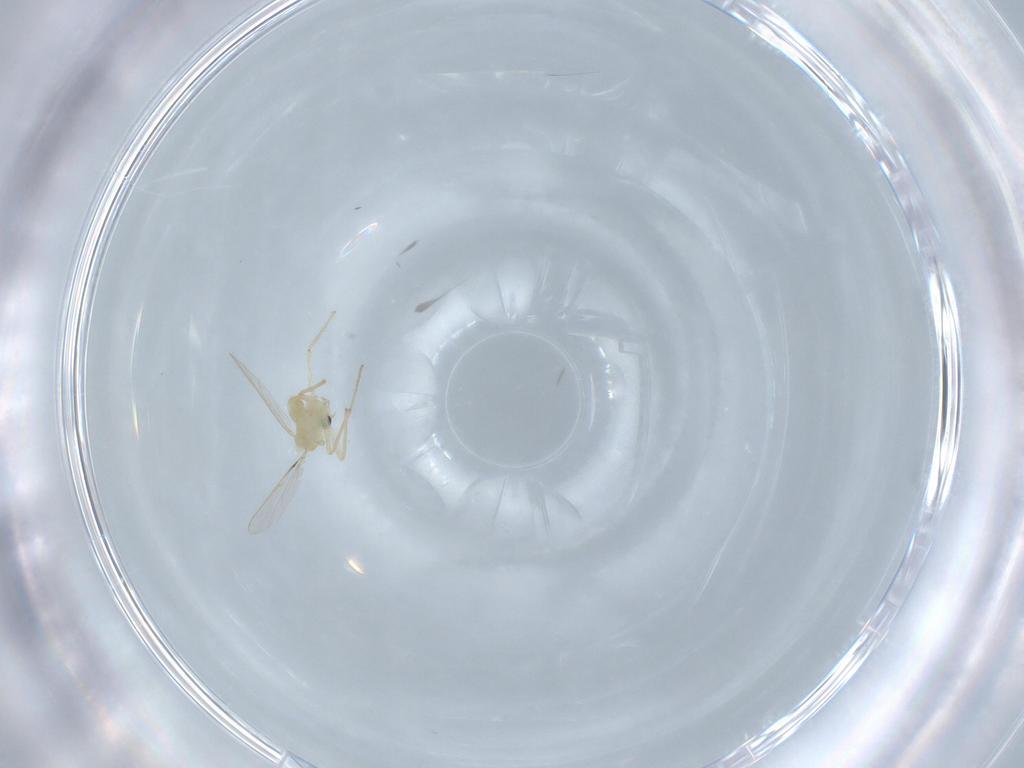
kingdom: Animalia
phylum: Arthropoda
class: Insecta
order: Diptera
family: Chironomidae
